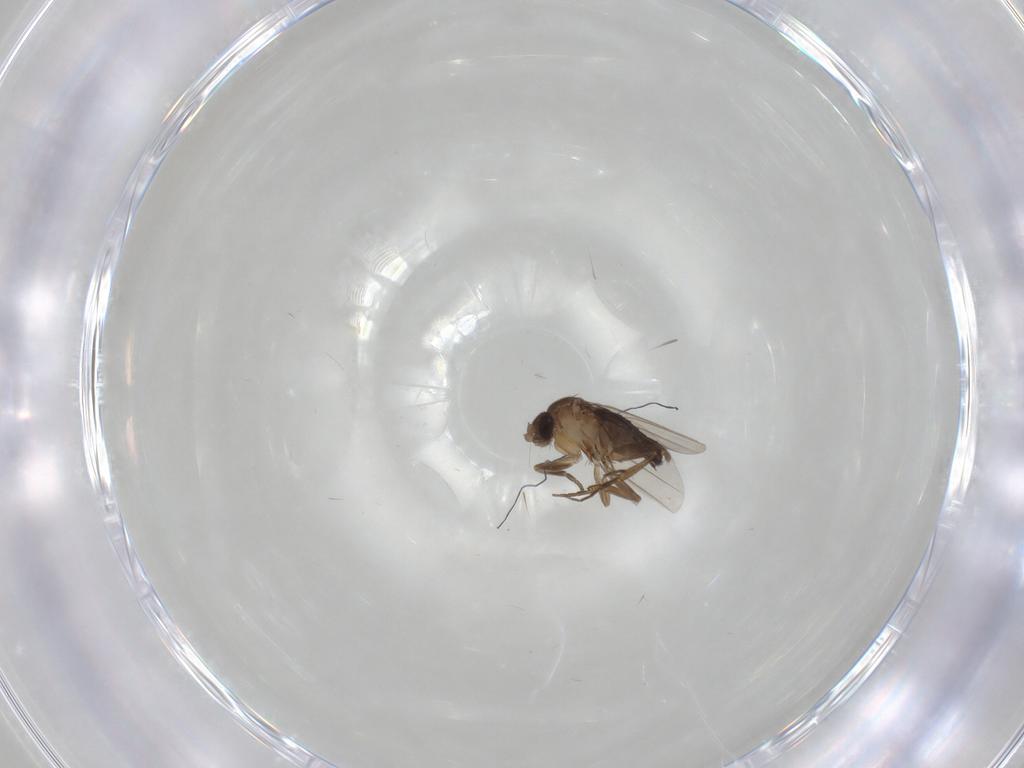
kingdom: Animalia
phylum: Arthropoda
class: Insecta
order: Diptera
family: Phoridae
